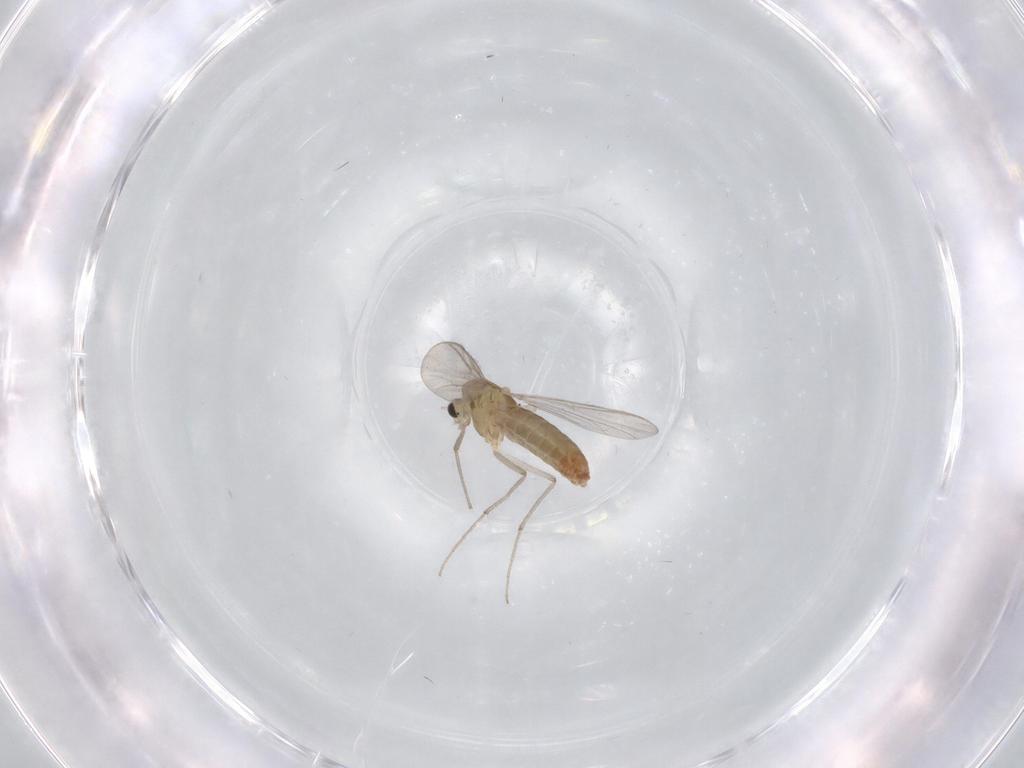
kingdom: Animalia
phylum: Arthropoda
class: Insecta
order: Diptera
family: Chironomidae
